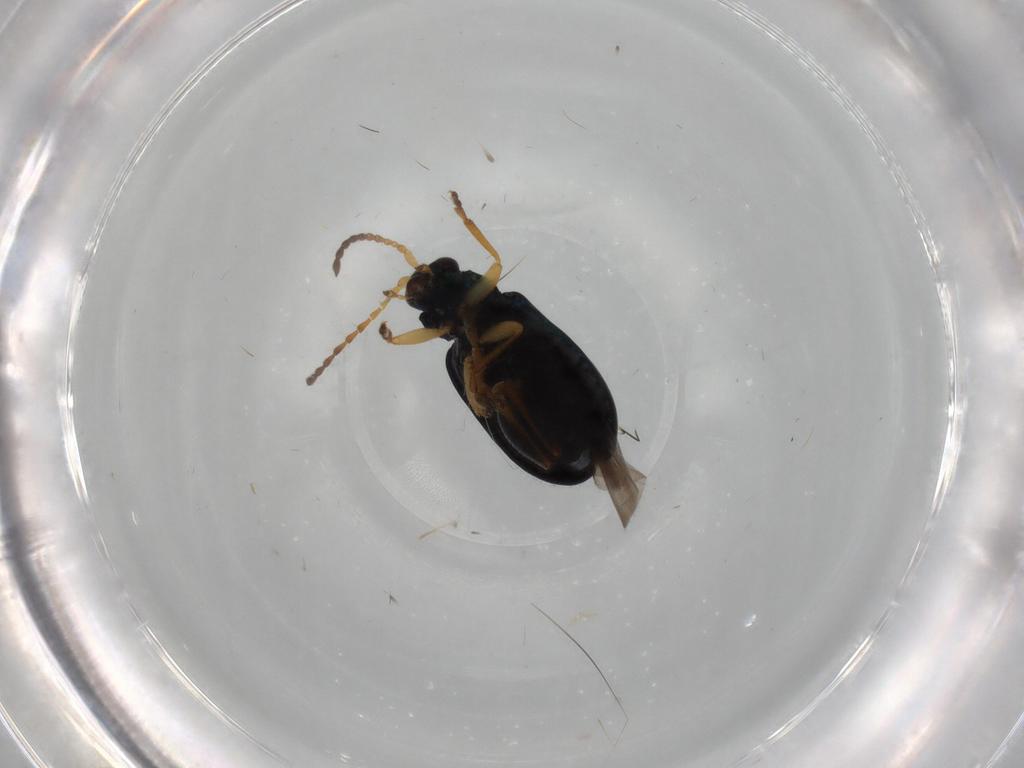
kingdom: Animalia
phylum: Arthropoda
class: Insecta
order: Coleoptera
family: Chrysomelidae
